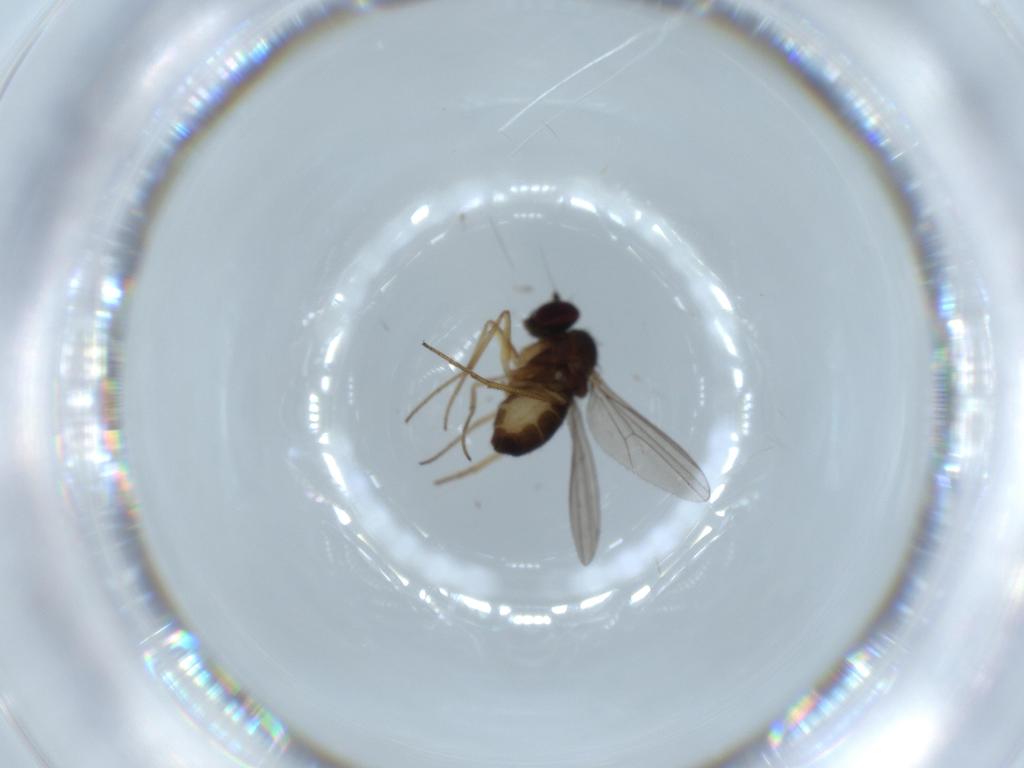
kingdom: Animalia
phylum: Arthropoda
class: Insecta
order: Diptera
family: Dolichopodidae
